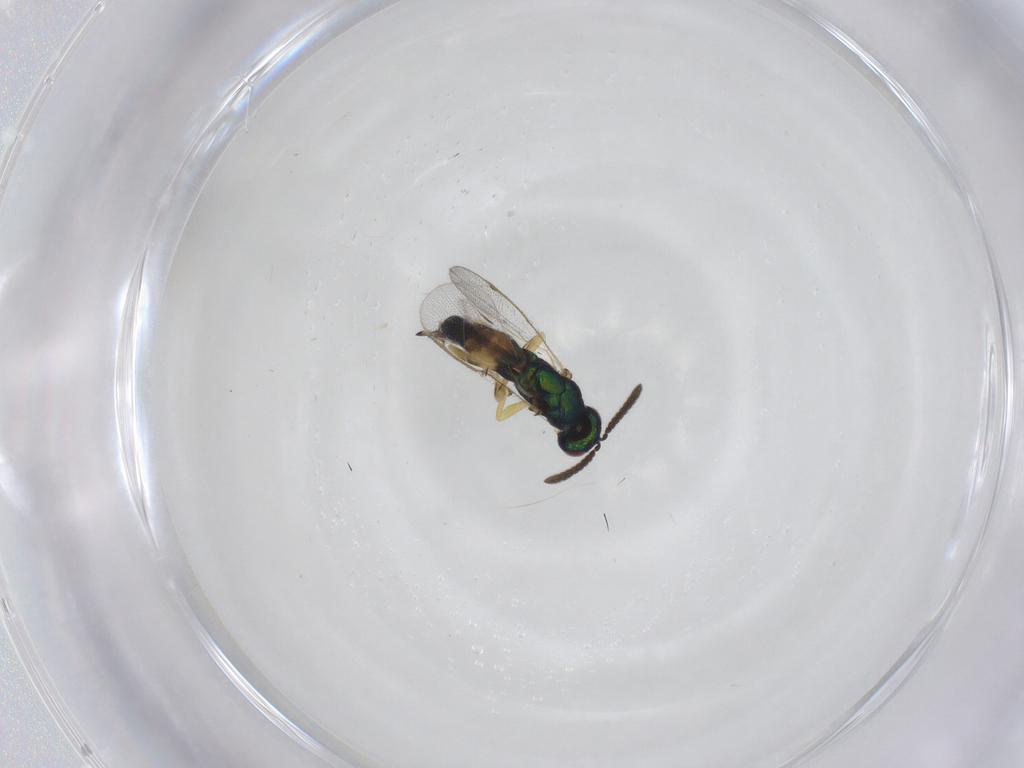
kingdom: Animalia
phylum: Arthropoda
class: Insecta
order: Hymenoptera
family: Torymidae
